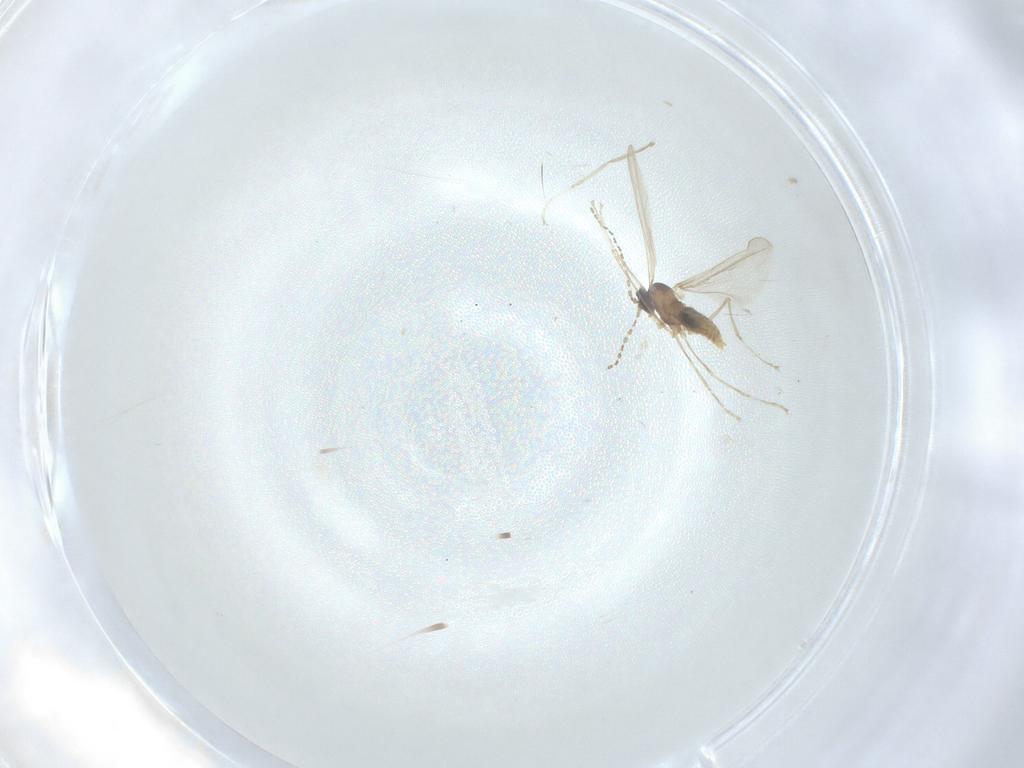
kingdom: Animalia
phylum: Arthropoda
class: Insecta
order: Diptera
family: Cecidomyiidae
